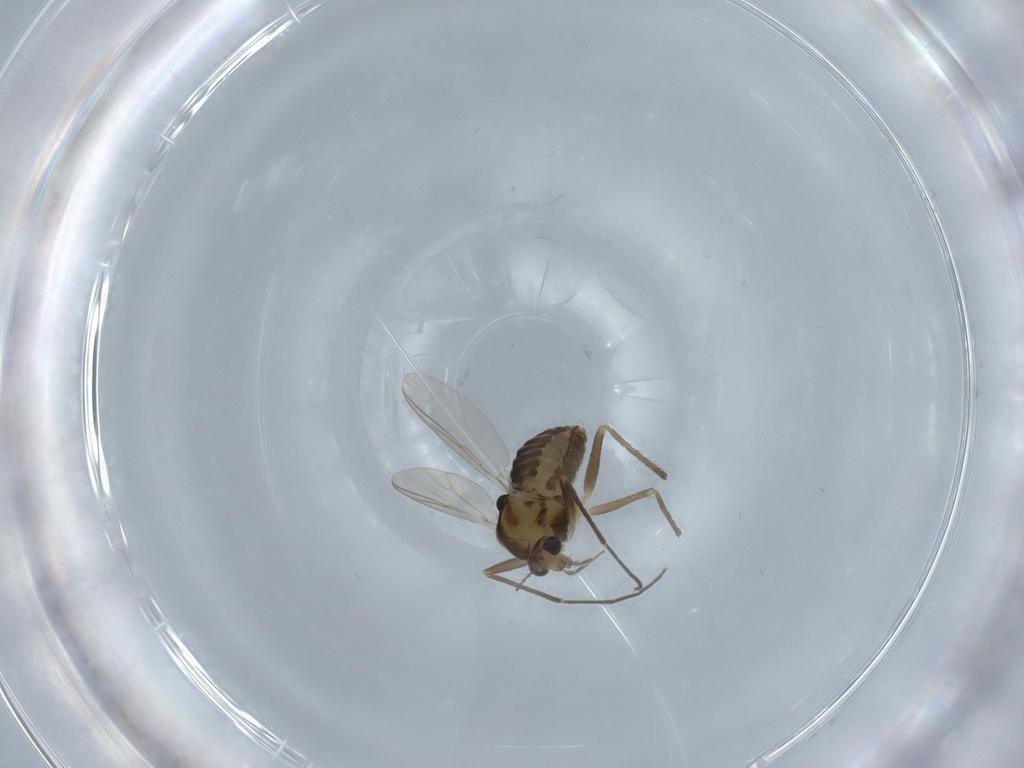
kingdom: Animalia
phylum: Arthropoda
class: Insecta
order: Diptera
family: Chironomidae
